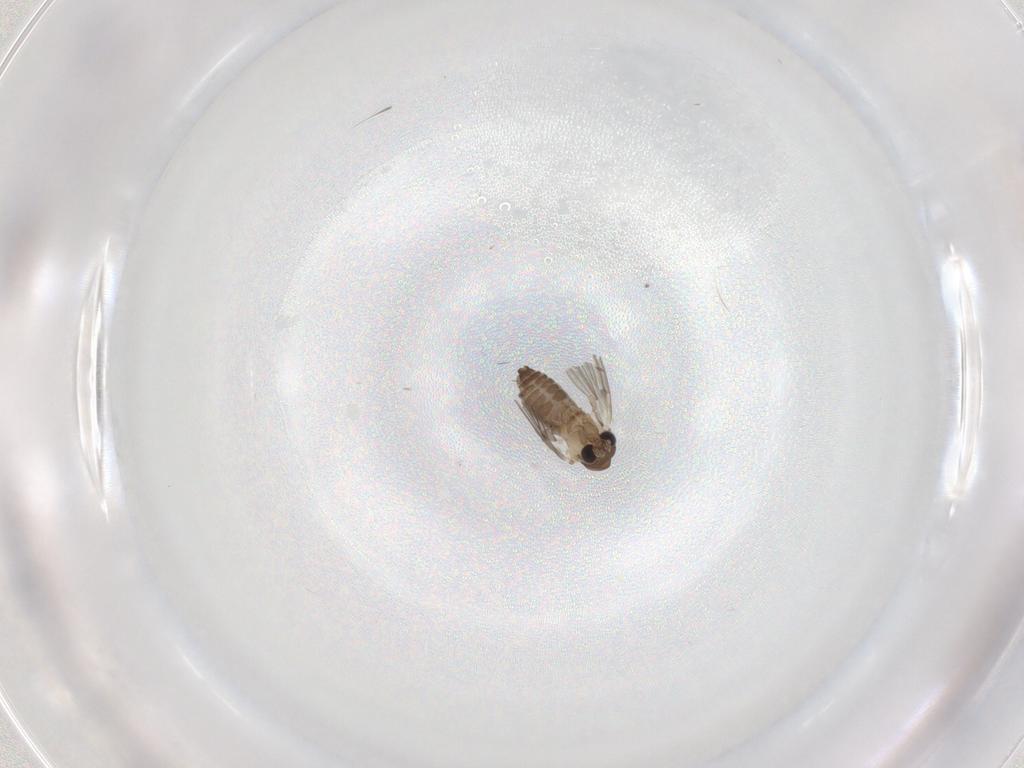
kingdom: Animalia
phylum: Arthropoda
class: Insecta
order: Diptera
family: Phoridae
